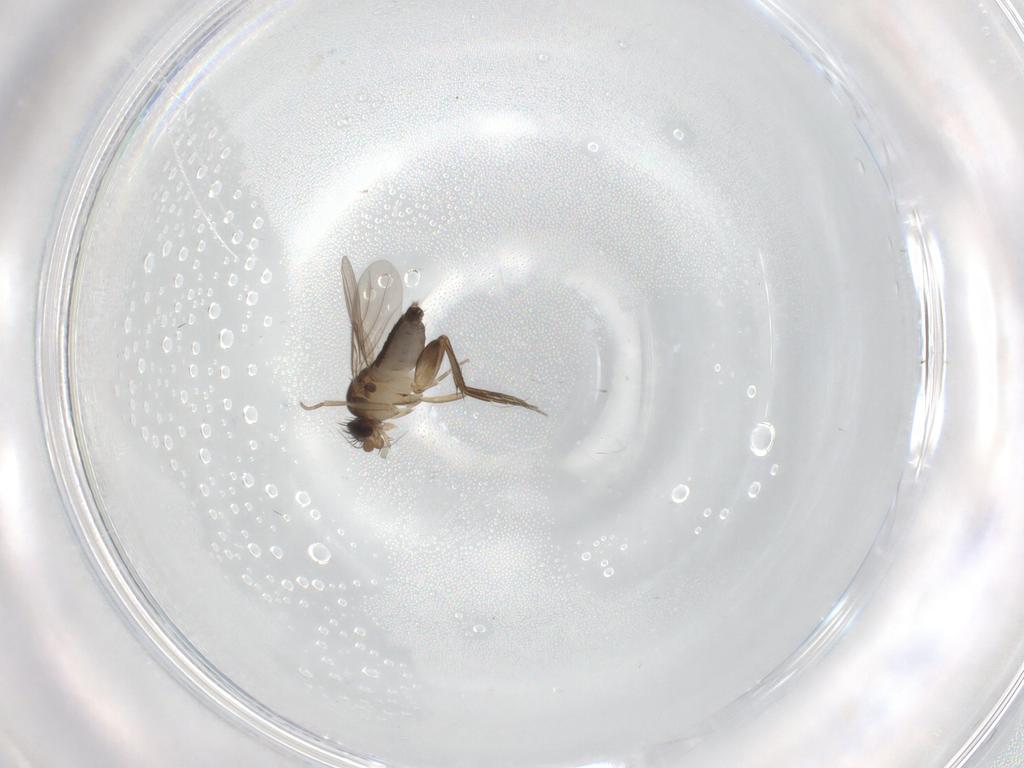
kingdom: Animalia
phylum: Arthropoda
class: Insecta
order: Diptera
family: Phoridae
